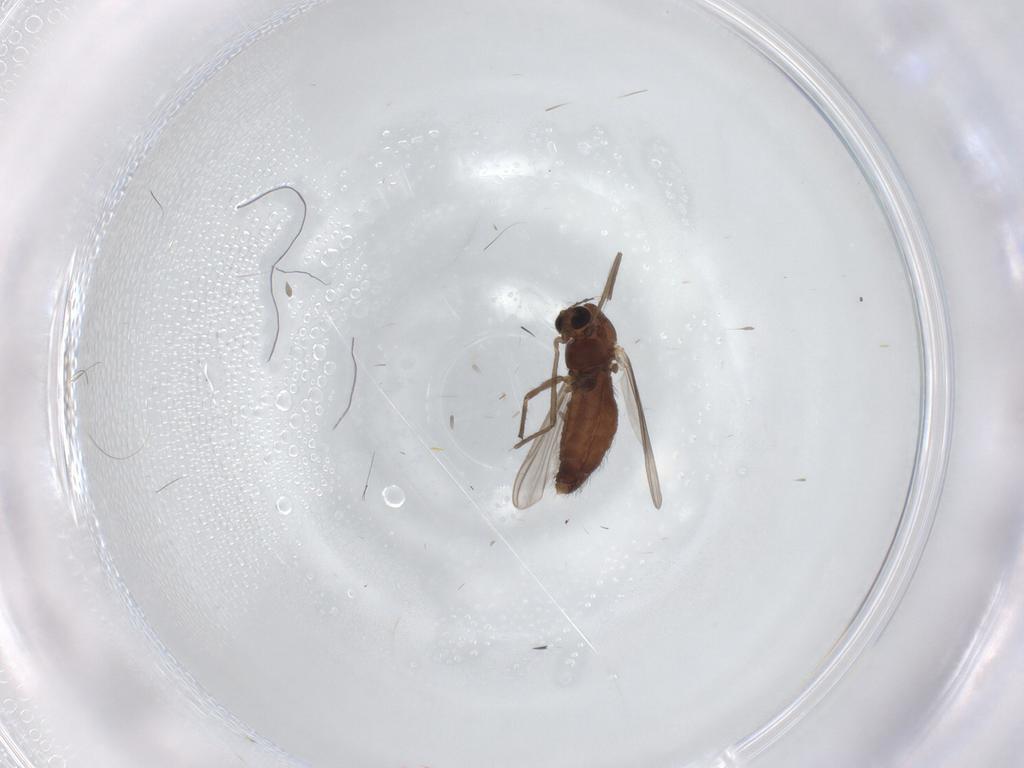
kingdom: Animalia
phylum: Arthropoda
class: Insecta
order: Diptera
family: Chironomidae
